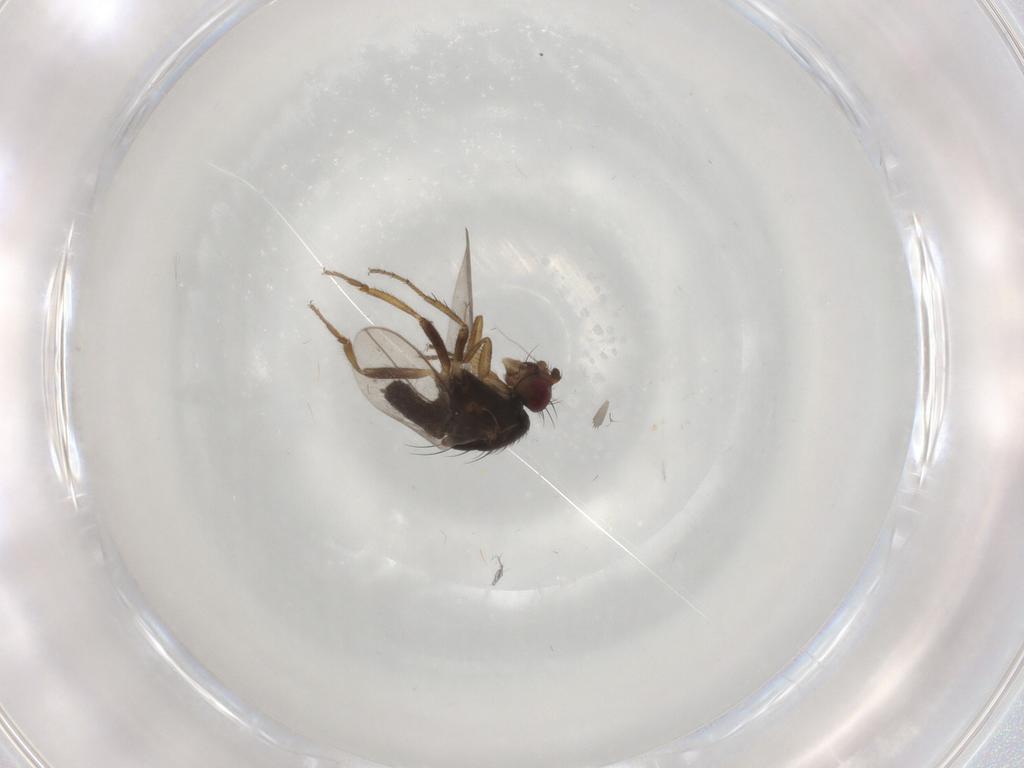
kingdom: Animalia
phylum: Arthropoda
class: Insecta
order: Diptera
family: Sphaeroceridae
